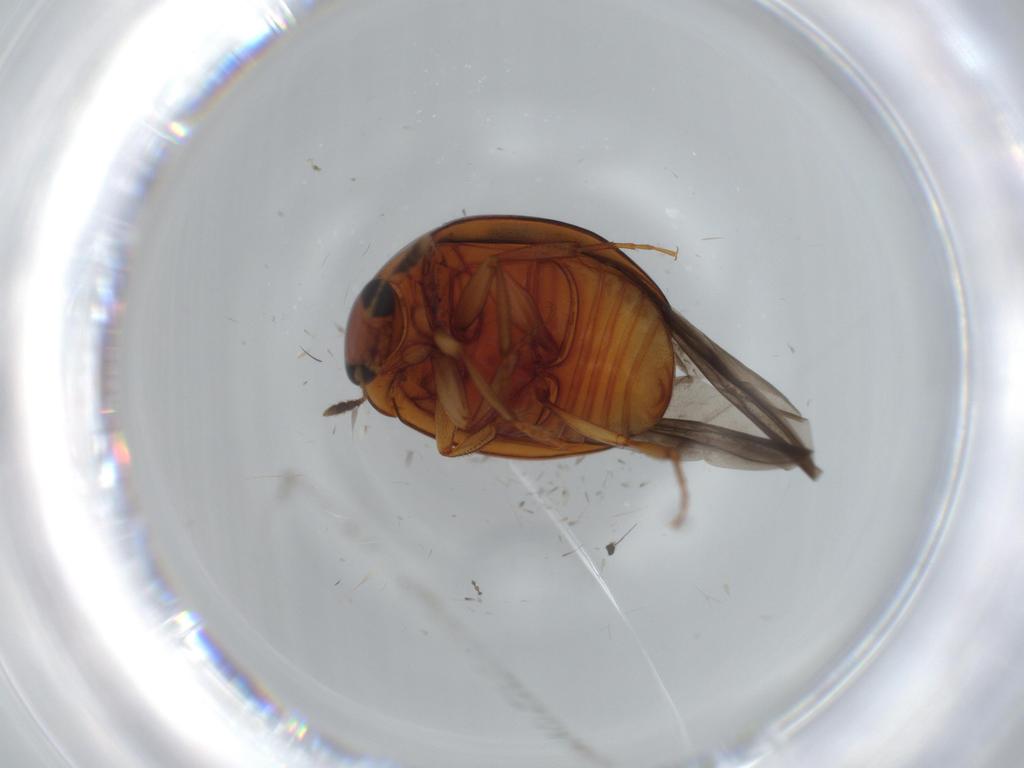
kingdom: Animalia
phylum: Arthropoda
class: Insecta
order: Coleoptera
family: Nitidulidae
